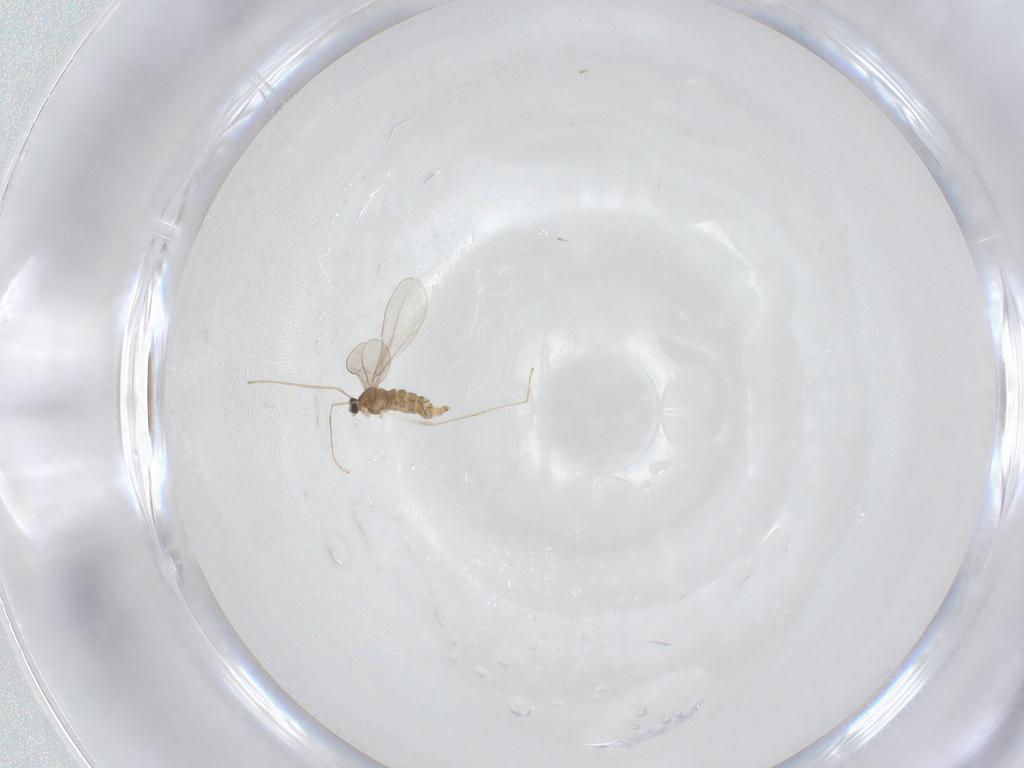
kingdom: Animalia
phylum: Arthropoda
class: Insecta
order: Diptera
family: Cecidomyiidae
